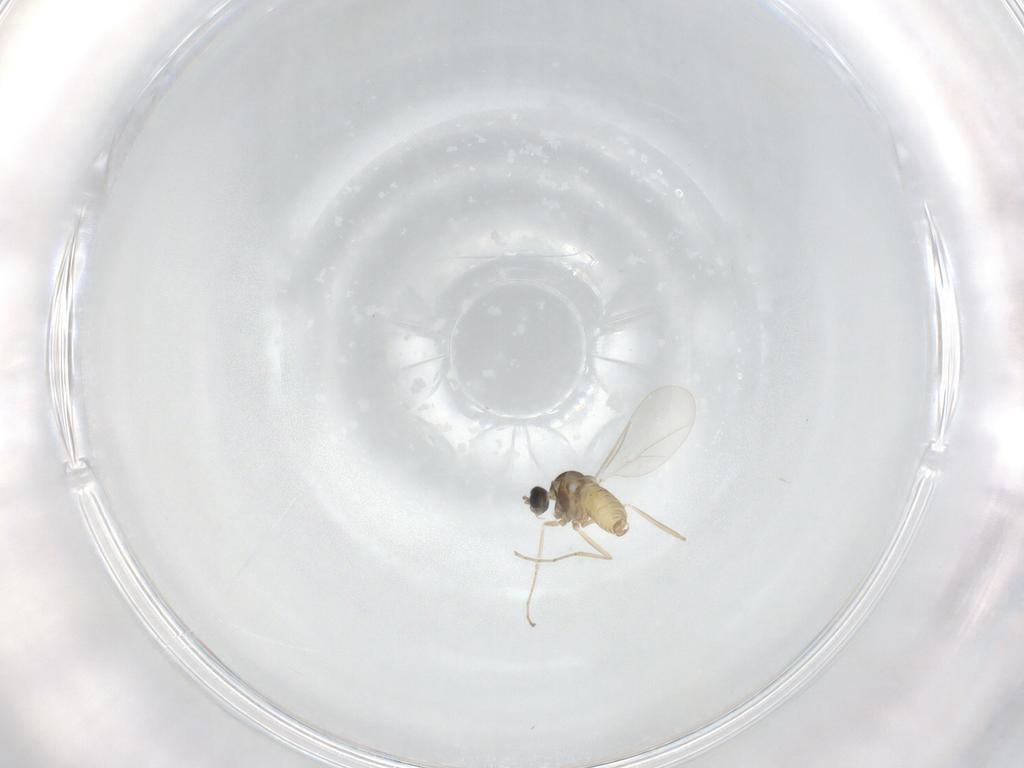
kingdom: Animalia
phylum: Arthropoda
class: Insecta
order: Diptera
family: Cecidomyiidae
